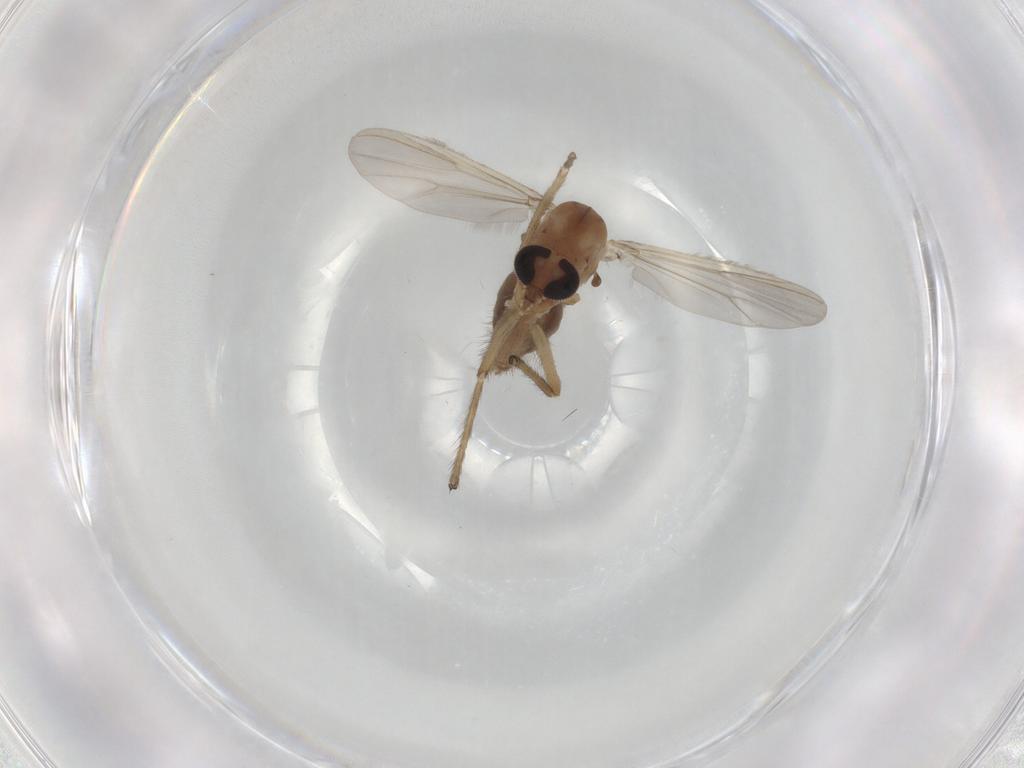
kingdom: Animalia
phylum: Arthropoda
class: Insecta
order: Diptera
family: Chironomidae
